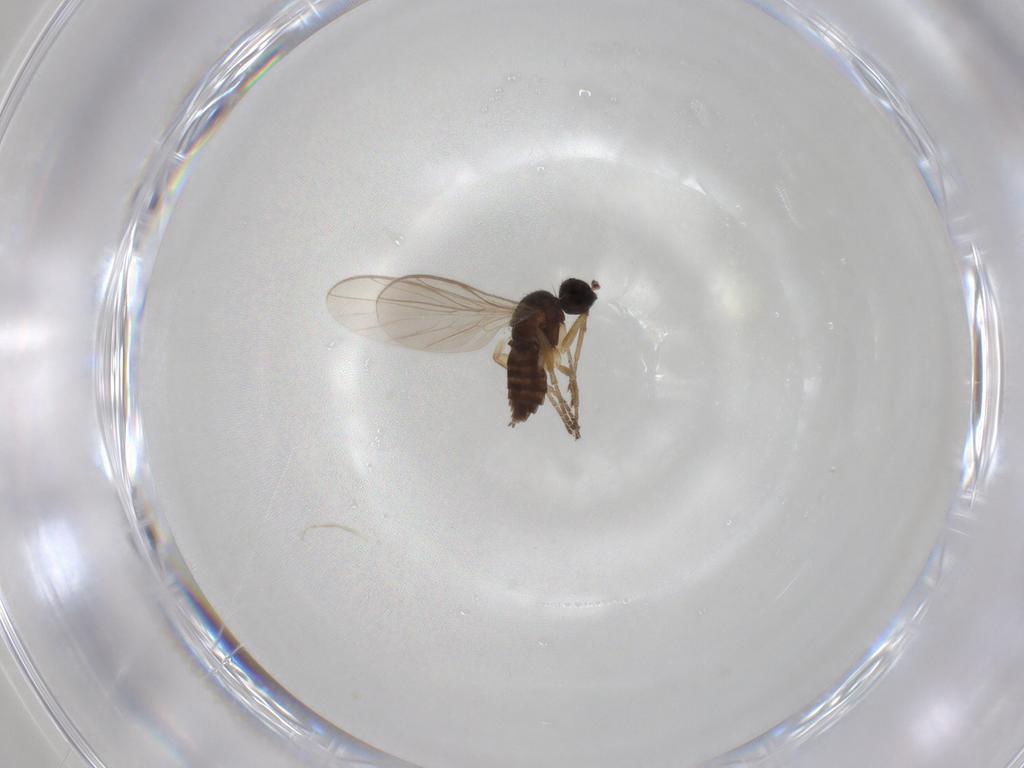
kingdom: Animalia
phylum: Arthropoda
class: Insecta
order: Diptera
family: Hybotidae
